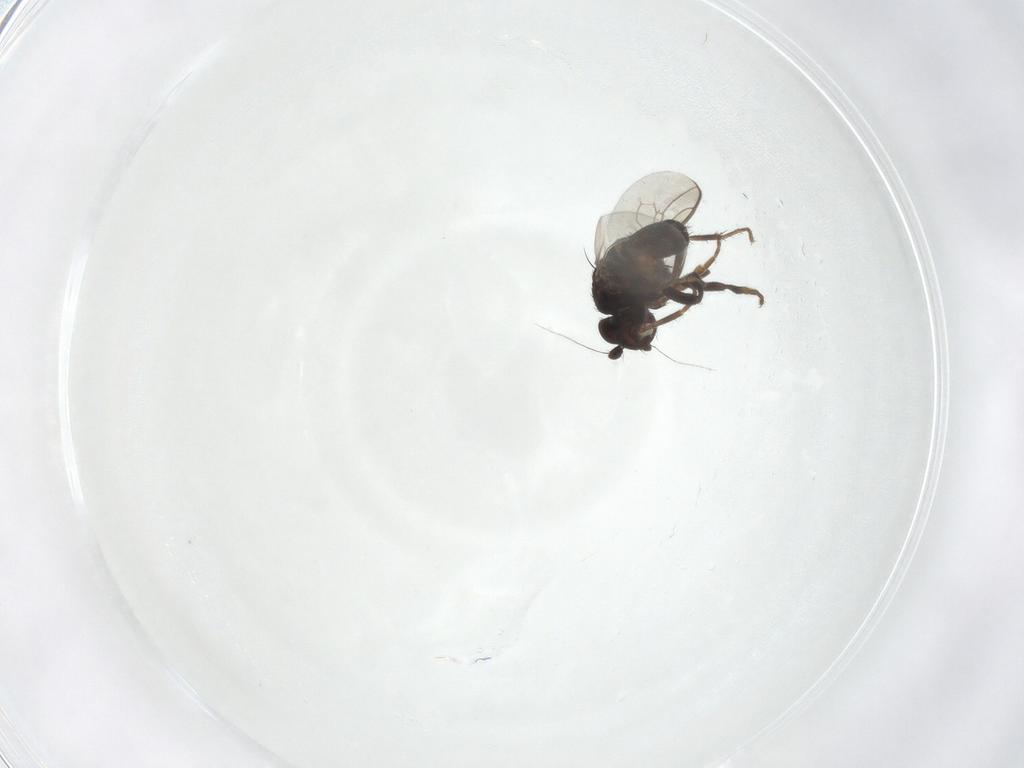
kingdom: Animalia
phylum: Arthropoda
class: Insecta
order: Diptera
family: Sphaeroceridae
